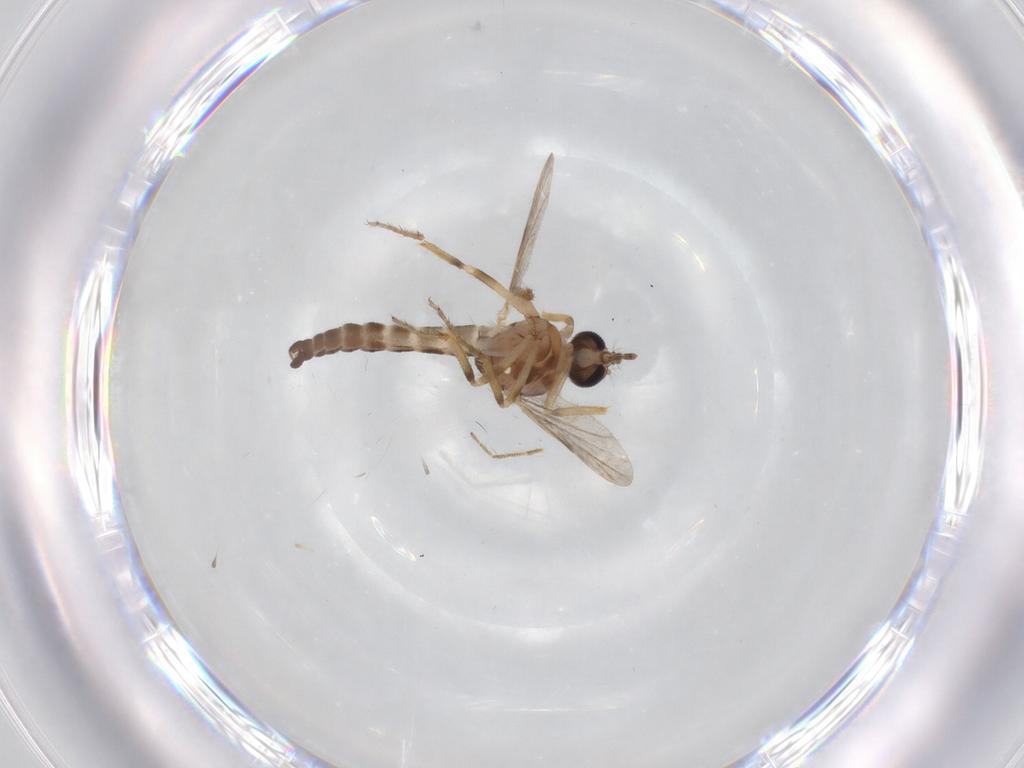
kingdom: Animalia
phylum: Arthropoda
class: Insecta
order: Diptera
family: Ceratopogonidae
